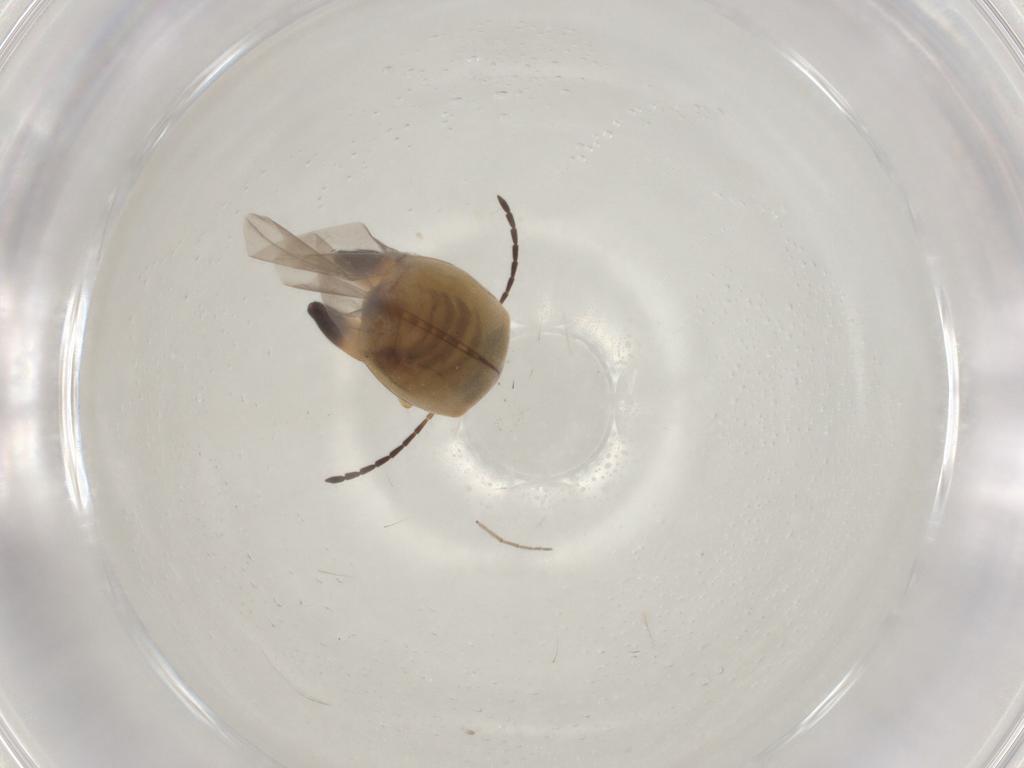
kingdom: Animalia
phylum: Arthropoda
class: Insecta
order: Coleoptera
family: Chrysomelidae
